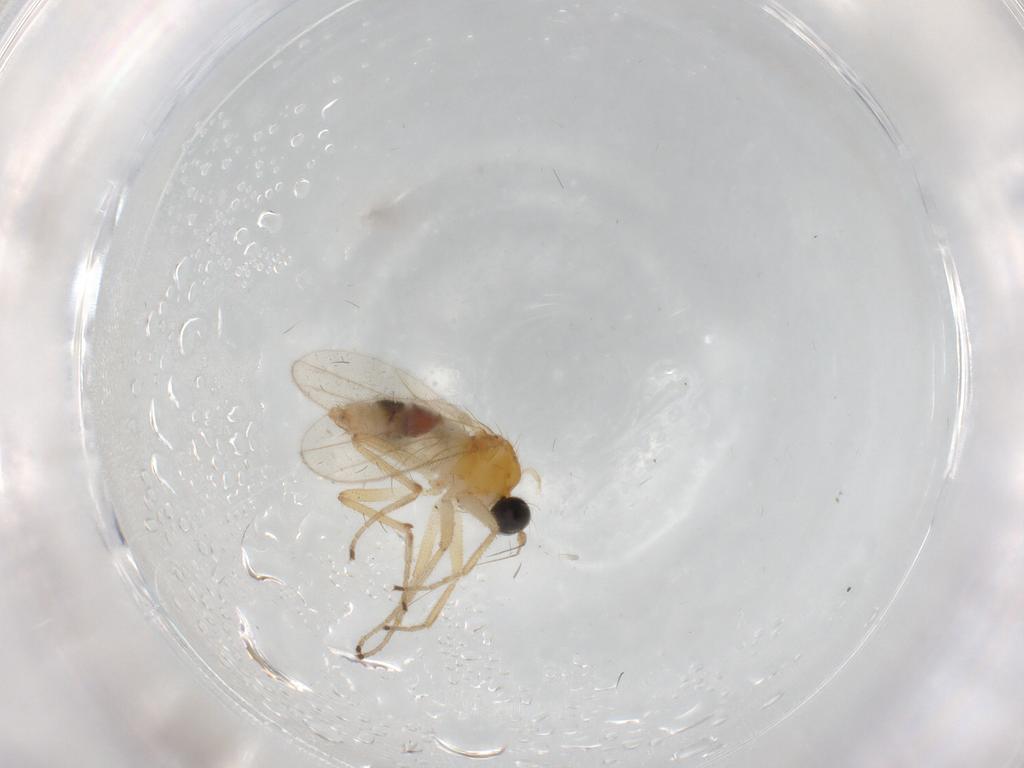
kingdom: Animalia
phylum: Arthropoda
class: Insecta
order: Diptera
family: Hybotidae
